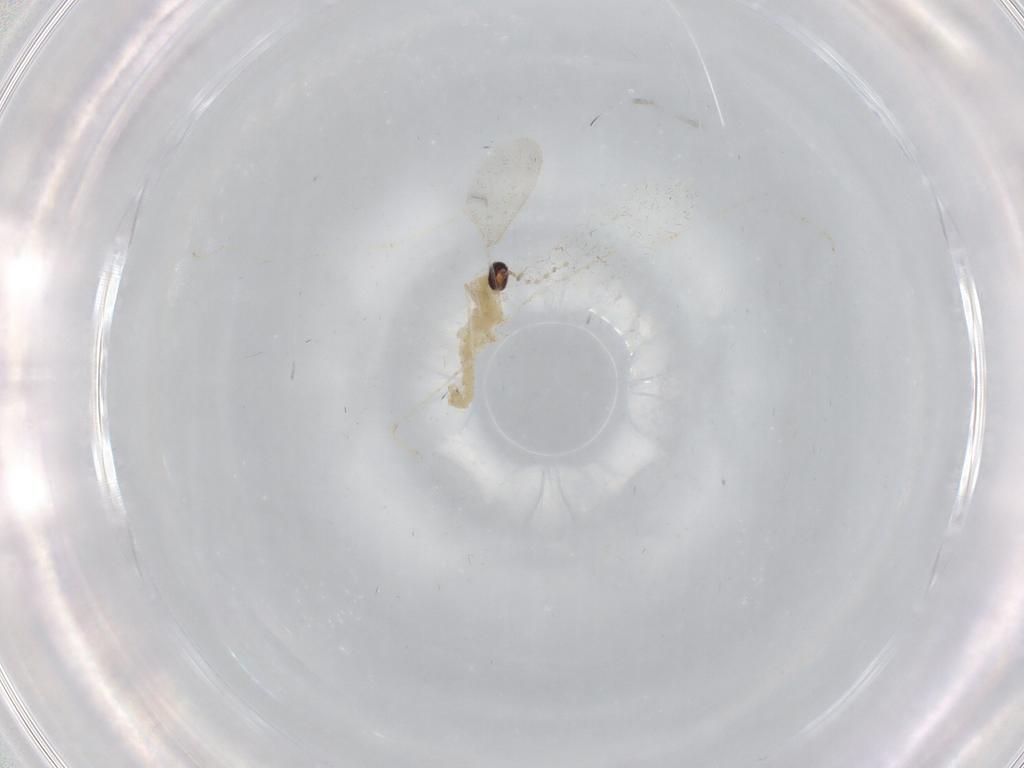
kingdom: Animalia
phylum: Arthropoda
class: Insecta
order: Diptera
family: Cecidomyiidae
